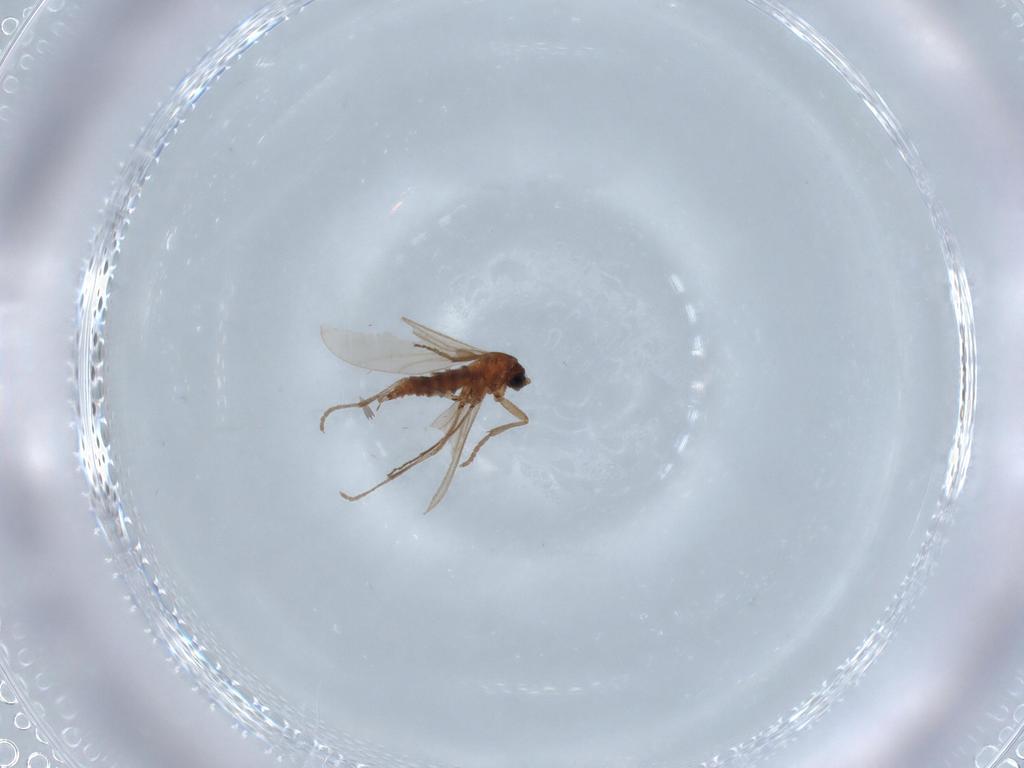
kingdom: Animalia
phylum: Arthropoda
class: Insecta
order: Diptera
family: Sciaridae
